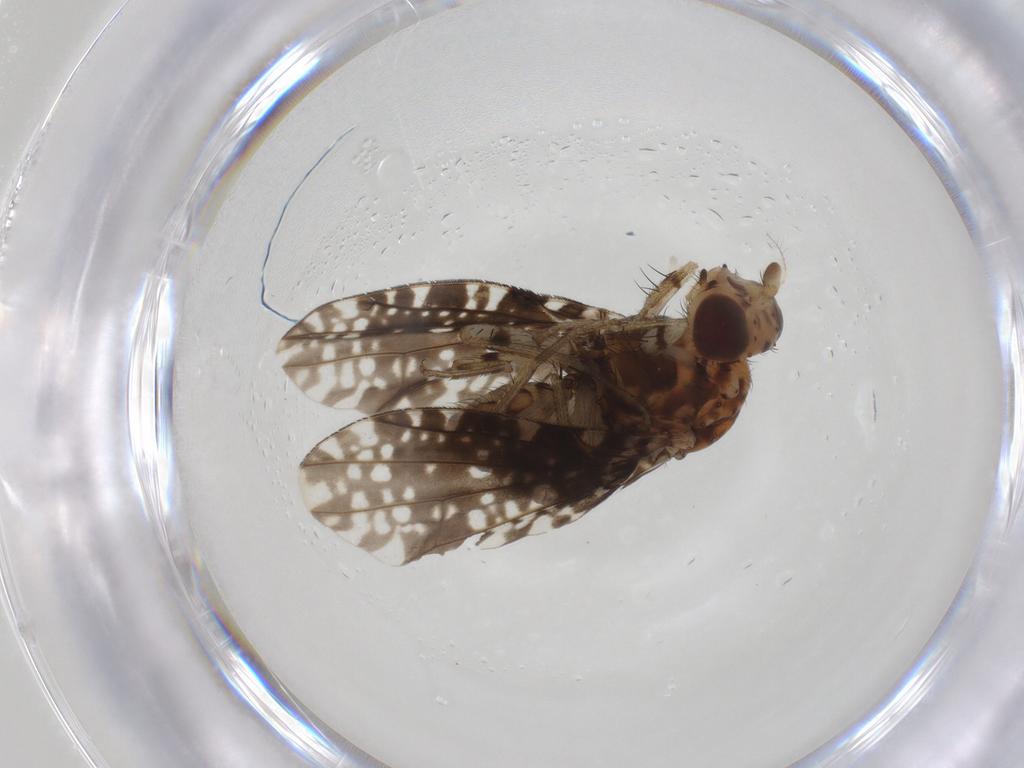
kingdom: Animalia
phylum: Arthropoda
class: Insecta
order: Diptera
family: Lauxaniidae
